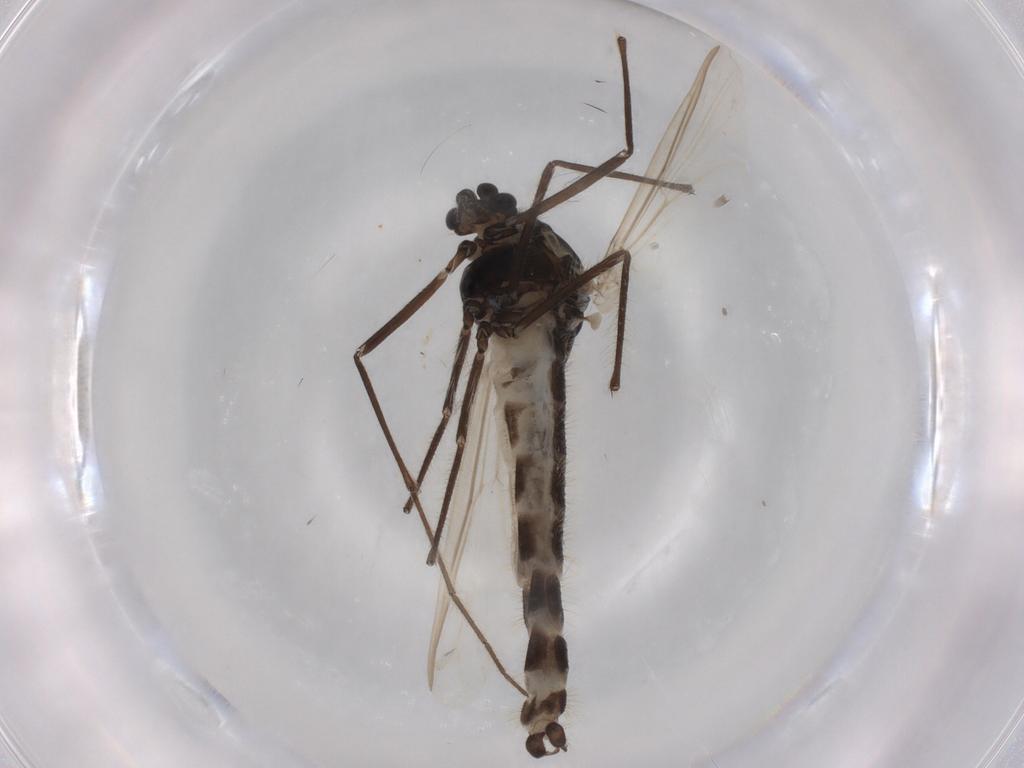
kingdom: Animalia
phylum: Arthropoda
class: Insecta
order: Diptera
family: Chironomidae
